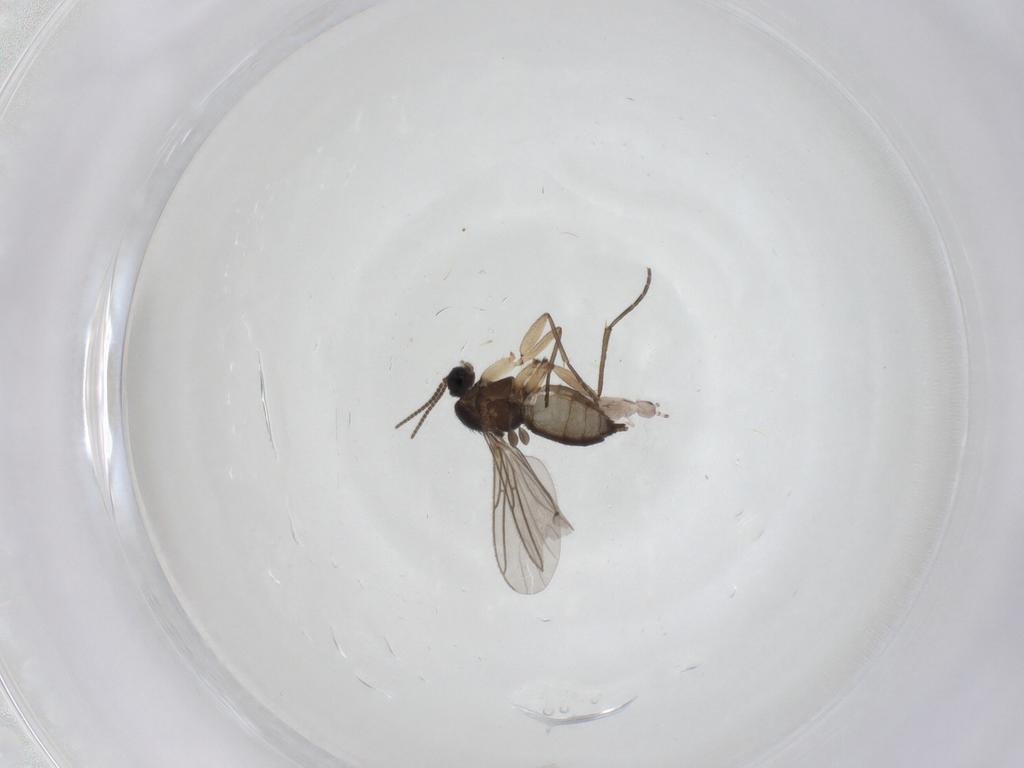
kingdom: Animalia
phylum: Arthropoda
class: Insecta
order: Diptera
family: Sciaridae
